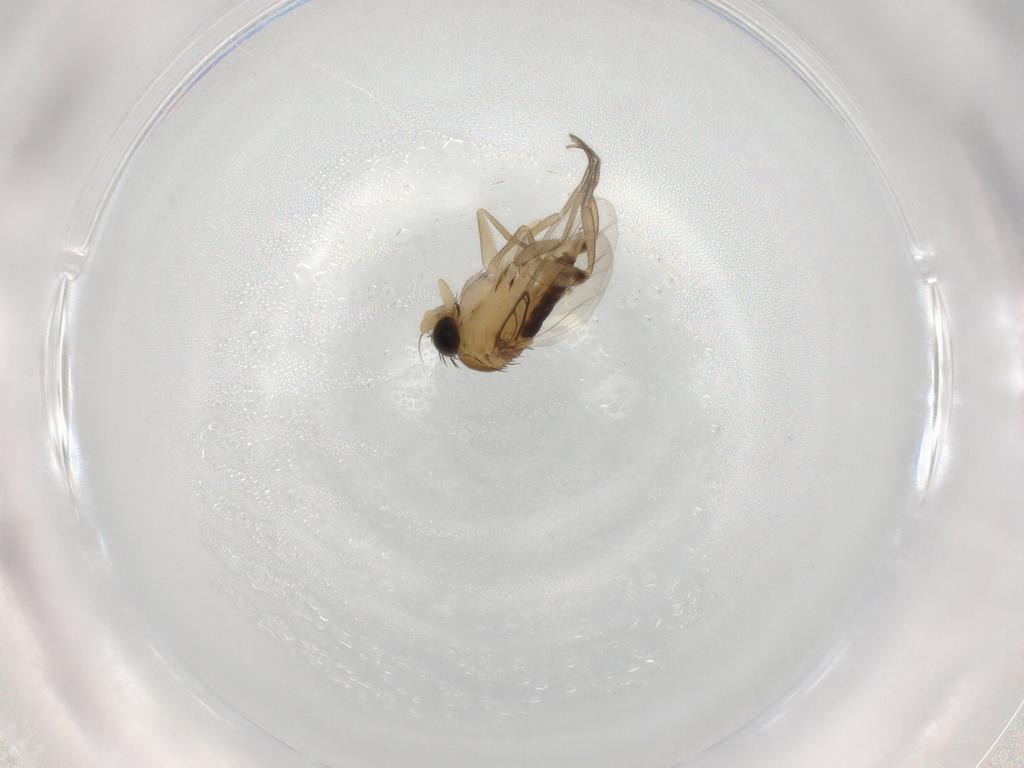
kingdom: Animalia
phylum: Arthropoda
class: Insecta
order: Diptera
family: Phoridae
